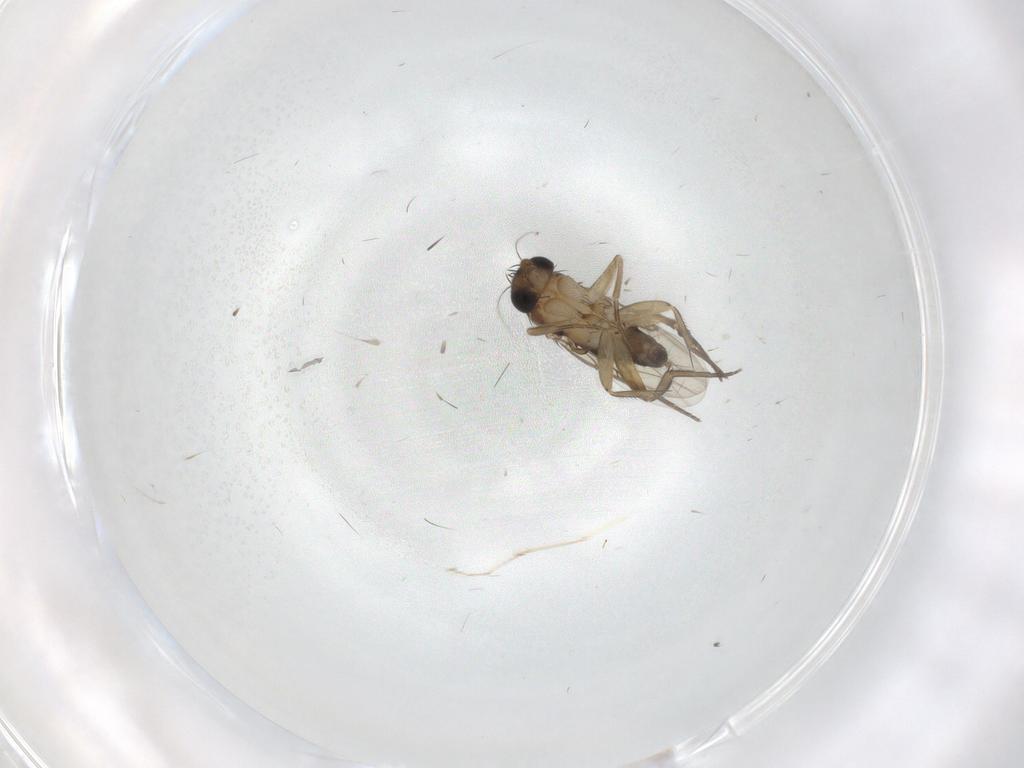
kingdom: Animalia
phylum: Arthropoda
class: Insecta
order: Diptera
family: Phoridae
